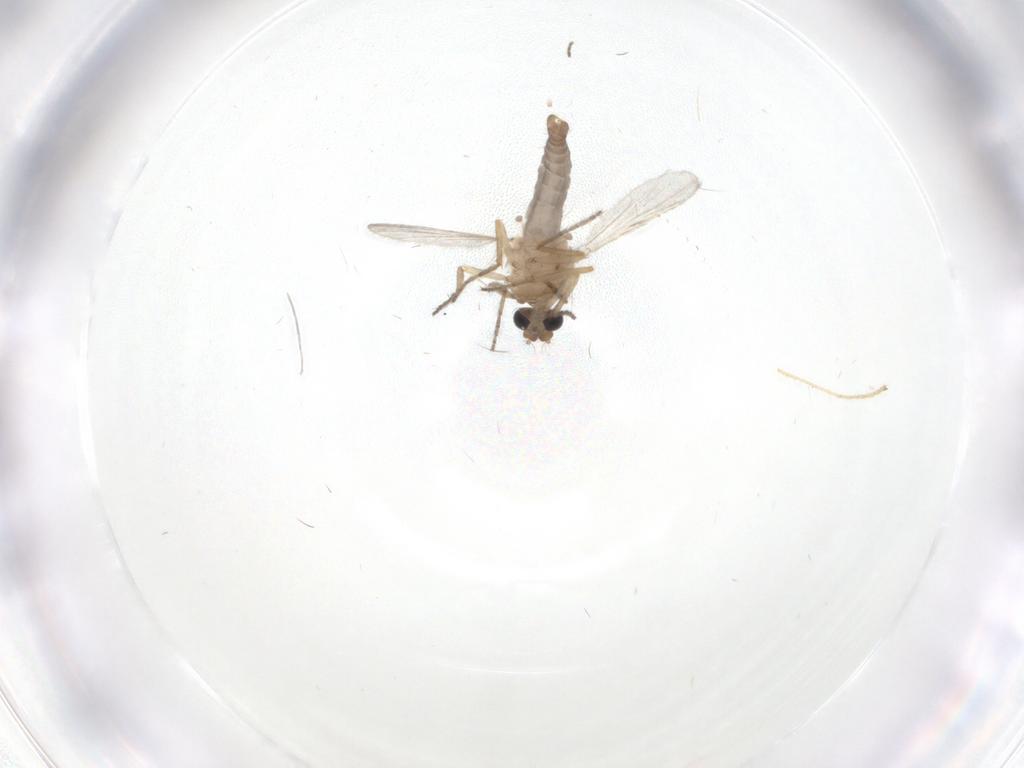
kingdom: Animalia
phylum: Arthropoda
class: Insecta
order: Diptera
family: Ceratopogonidae
